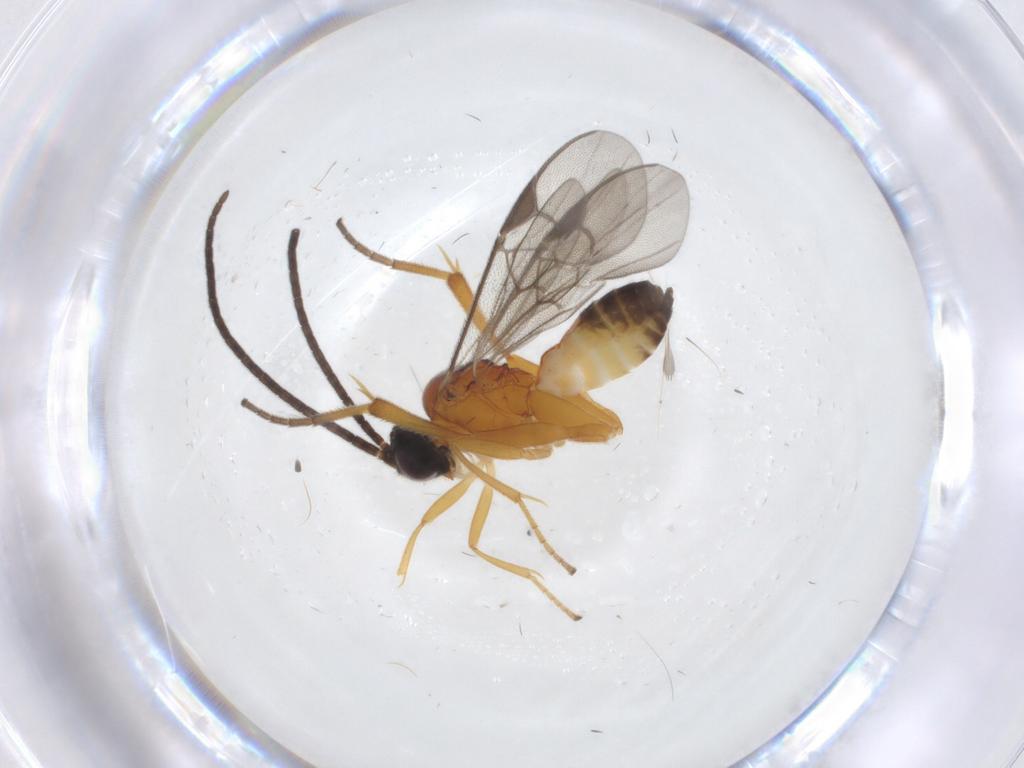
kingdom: Animalia
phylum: Arthropoda
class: Insecta
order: Hymenoptera
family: Braconidae
